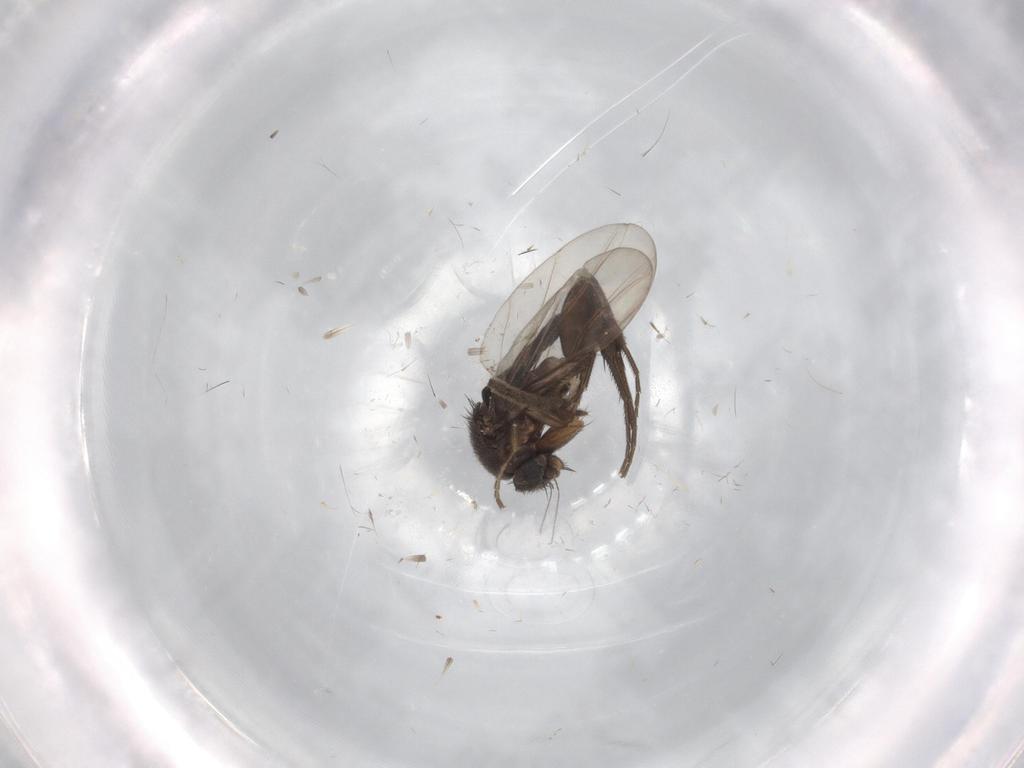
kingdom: Animalia
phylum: Arthropoda
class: Insecta
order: Diptera
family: Phoridae
